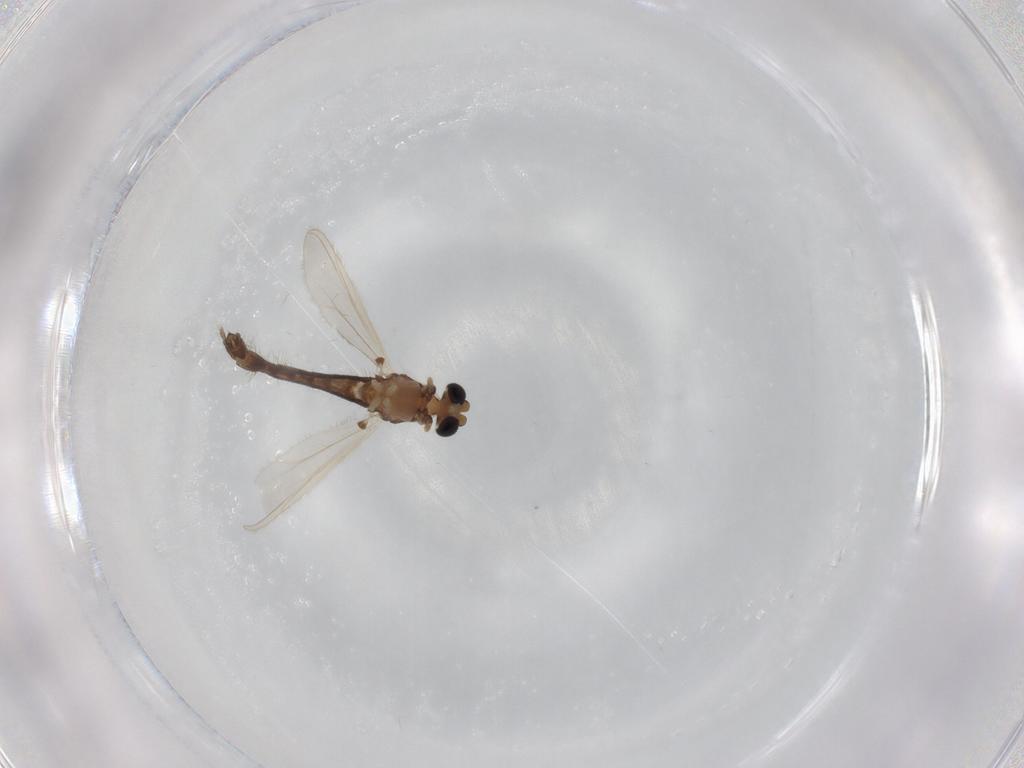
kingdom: Animalia
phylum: Arthropoda
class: Insecta
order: Diptera
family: Chironomidae
